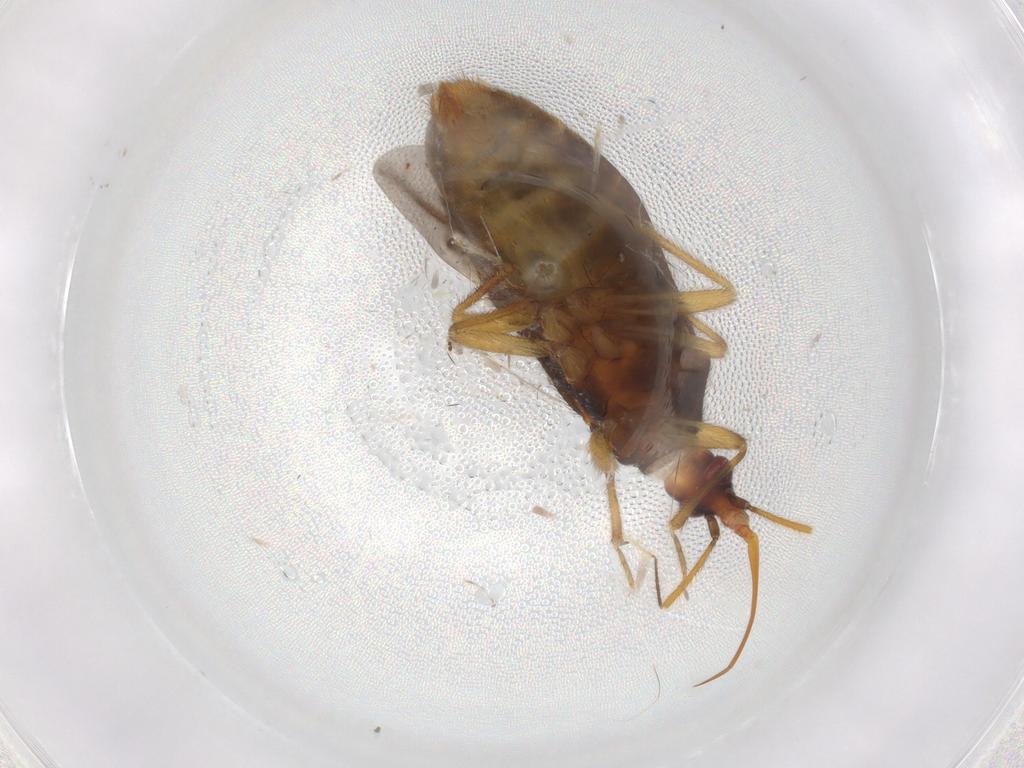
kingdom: Animalia
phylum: Arthropoda
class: Insecta
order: Hemiptera
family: Anthocoridae
